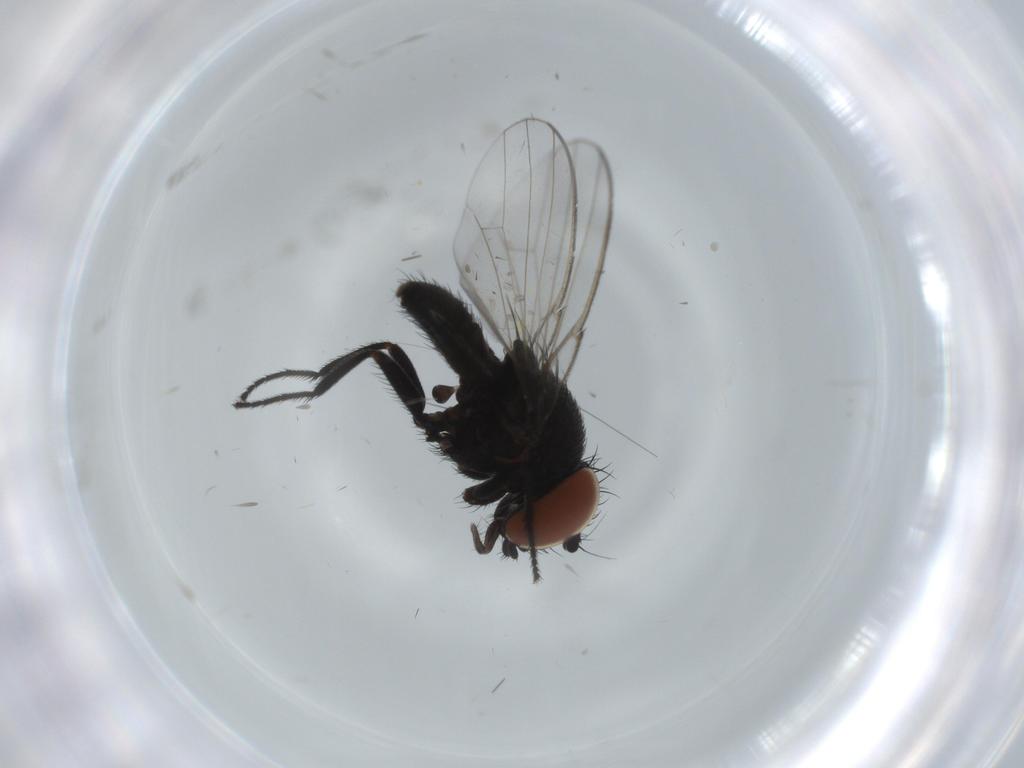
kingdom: Animalia
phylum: Arthropoda
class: Insecta
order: Diptera
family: Milichiidae
